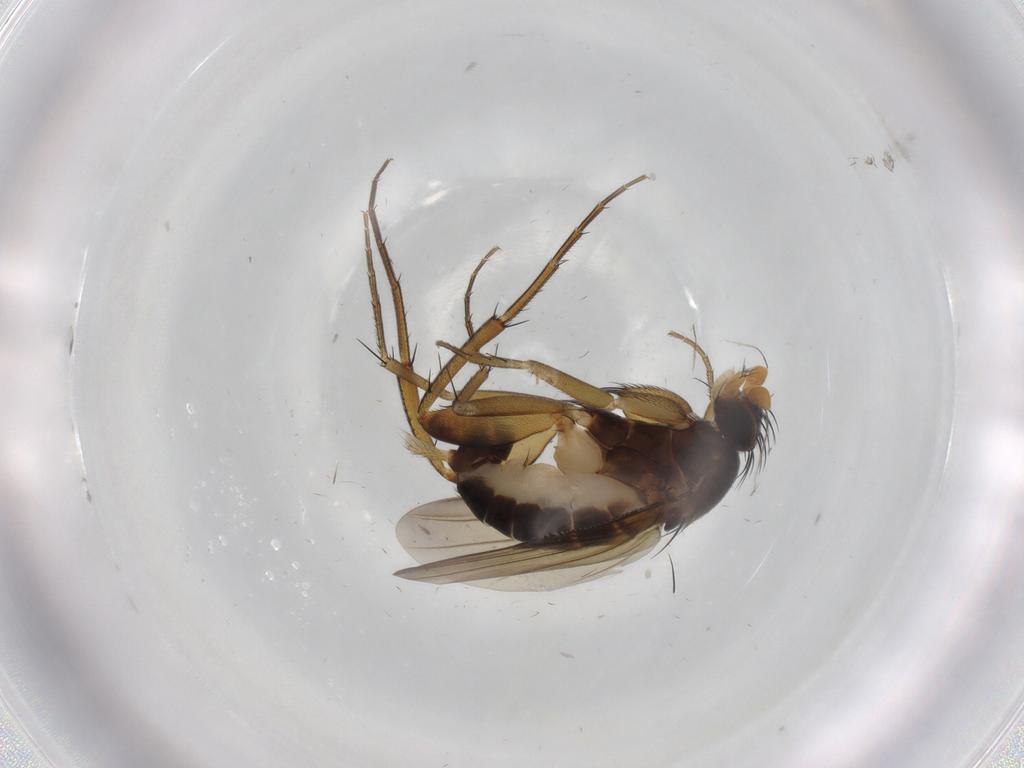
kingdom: Animalia
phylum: Arthropoda
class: Insecta
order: Diptera
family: Phoridae
